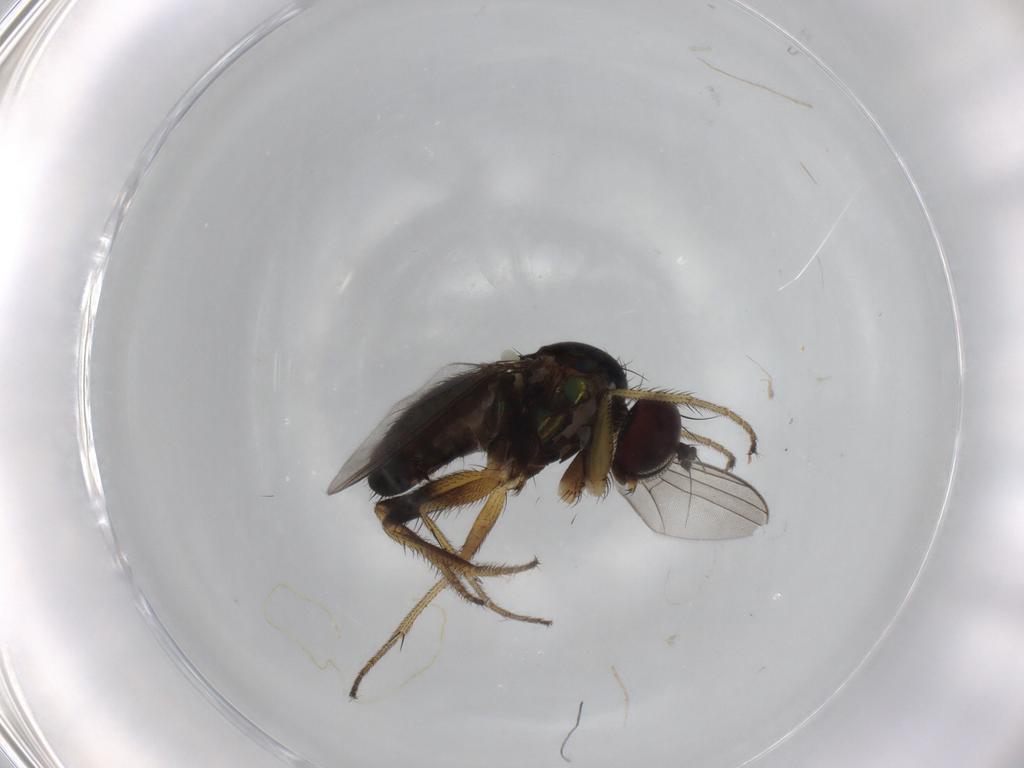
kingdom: Animalia
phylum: Arthropoda
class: Insecta
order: Diptera
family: Dolichopodidae
